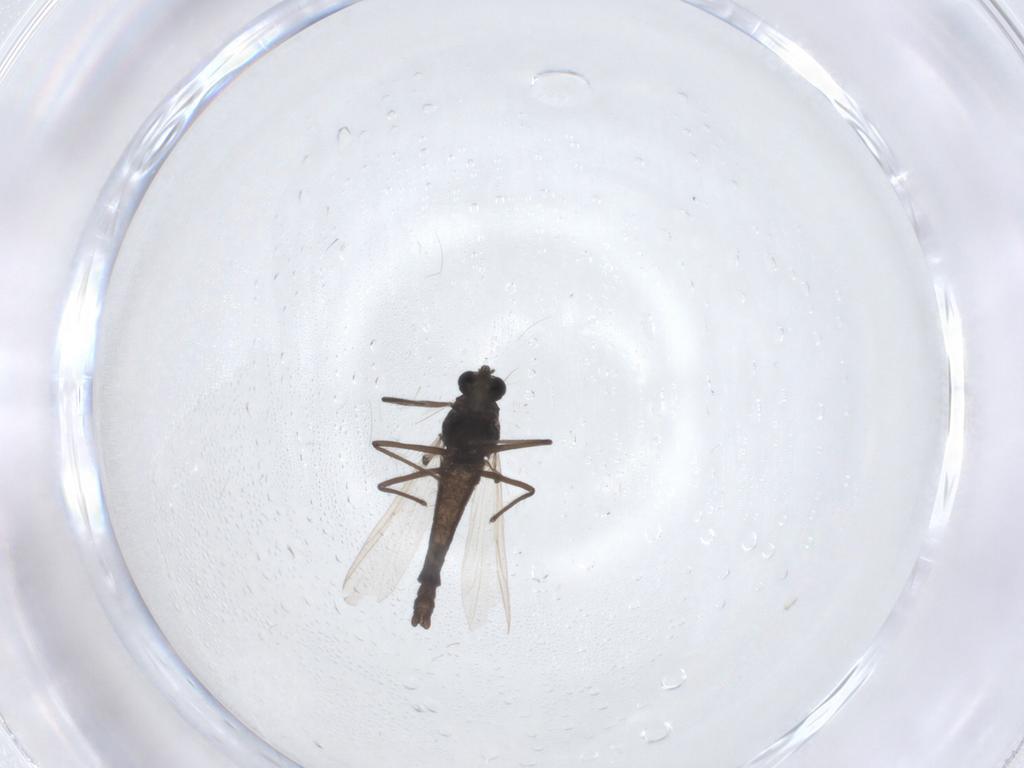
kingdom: Animalia
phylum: Arthropoda
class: Insecta
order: Diptera
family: Chironomidae
